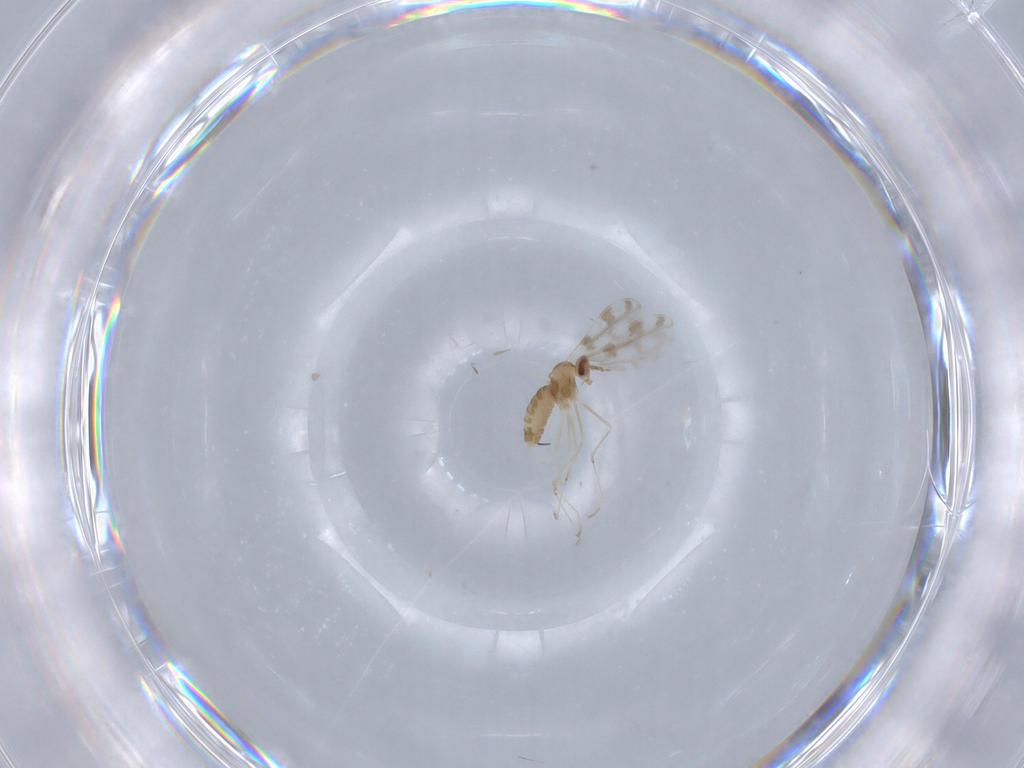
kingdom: Animalia
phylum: Arthropoda
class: Insecta
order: Diptera
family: Cecidomyiidae
